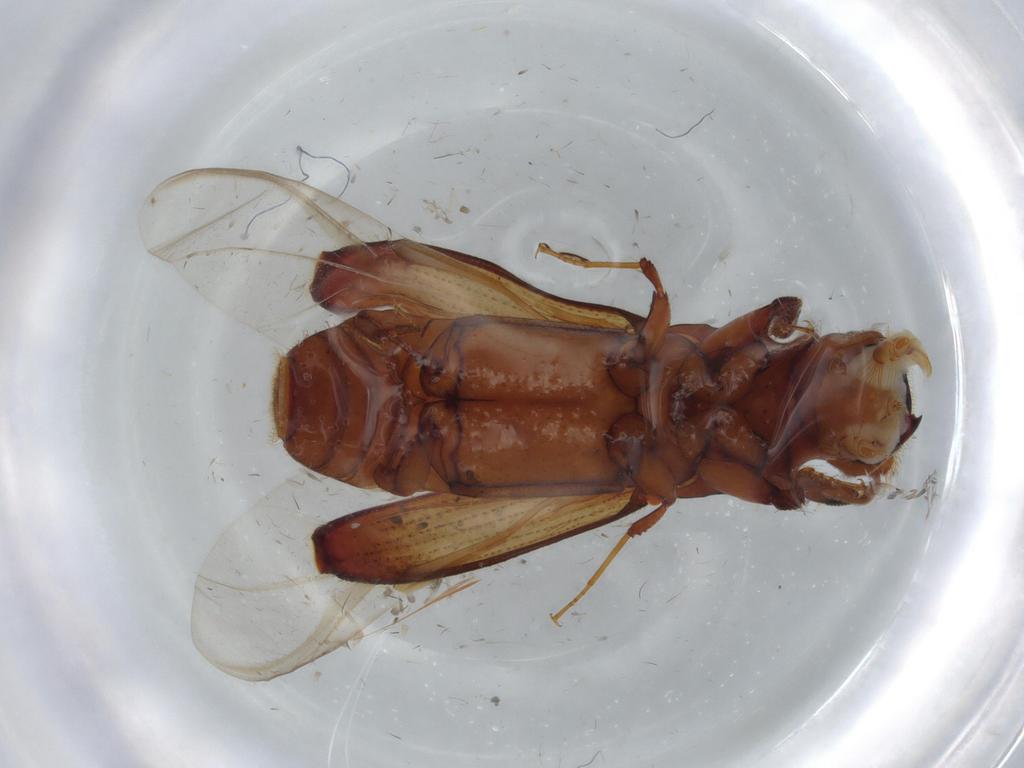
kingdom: Animalia
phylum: Arthropoda
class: Insecta
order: Coleoptera
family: Curculionidae
